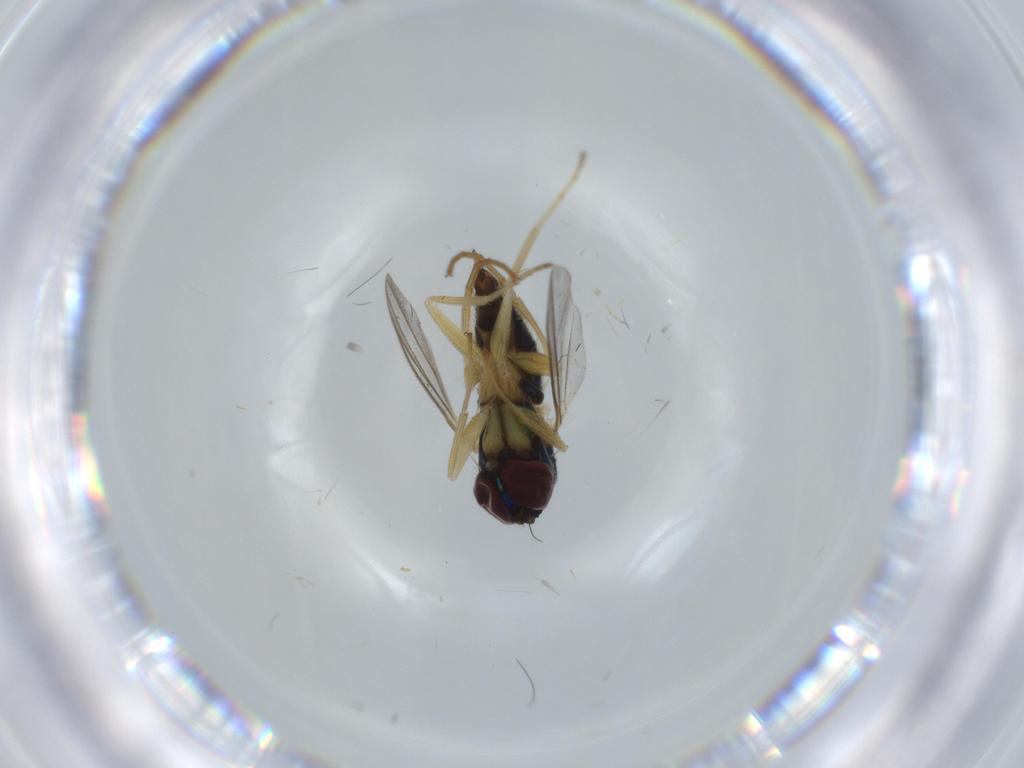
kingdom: Animalia
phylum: Arthropoda
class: Insecta
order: Diptera
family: Dolichopodidae
